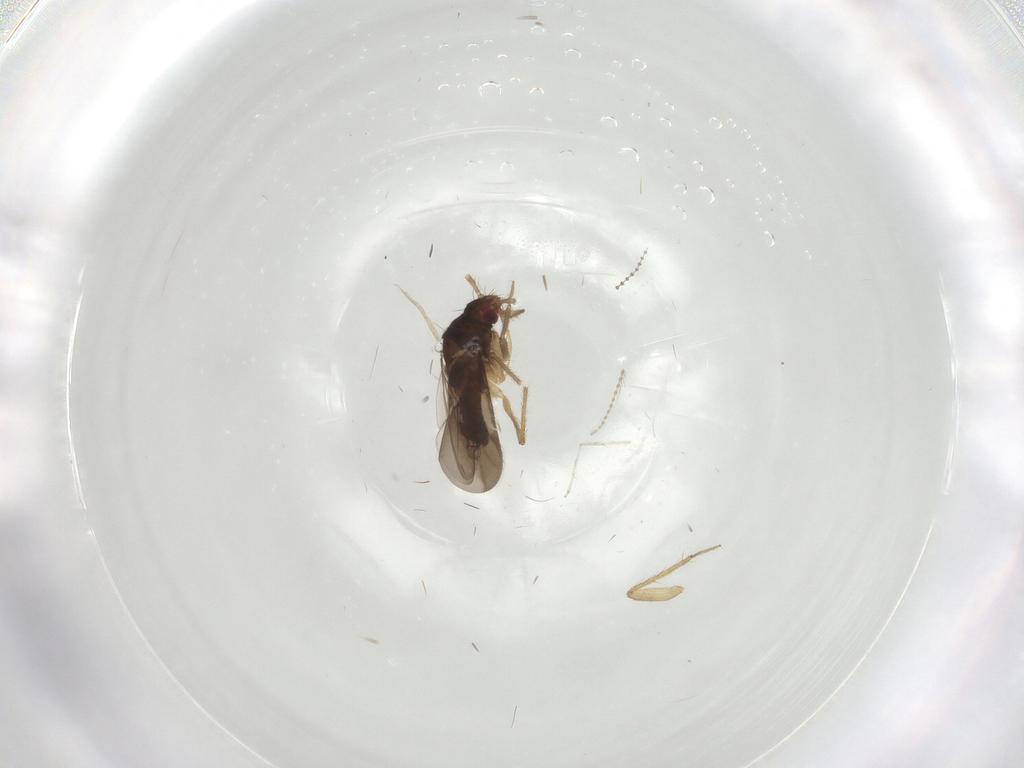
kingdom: Animalia
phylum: Arthropoda
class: Insecta
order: Hemiptera
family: Ceratocombidae
